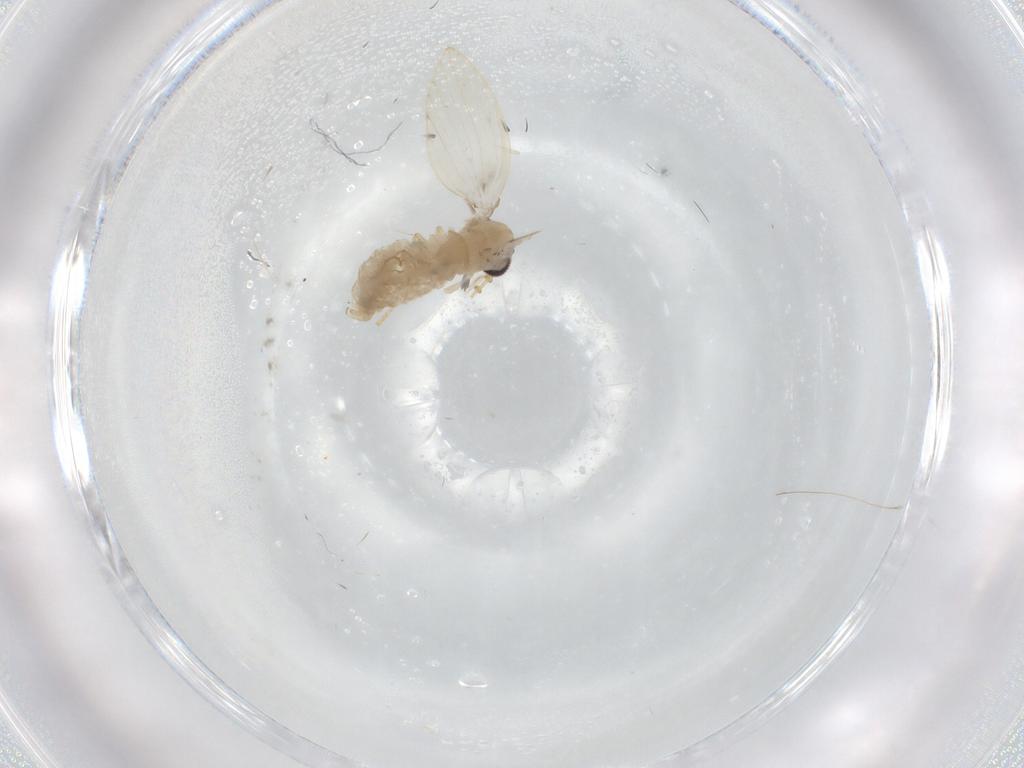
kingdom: Animalia
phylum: Arthropoda
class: Insecta
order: Diptera
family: Psychodidae
